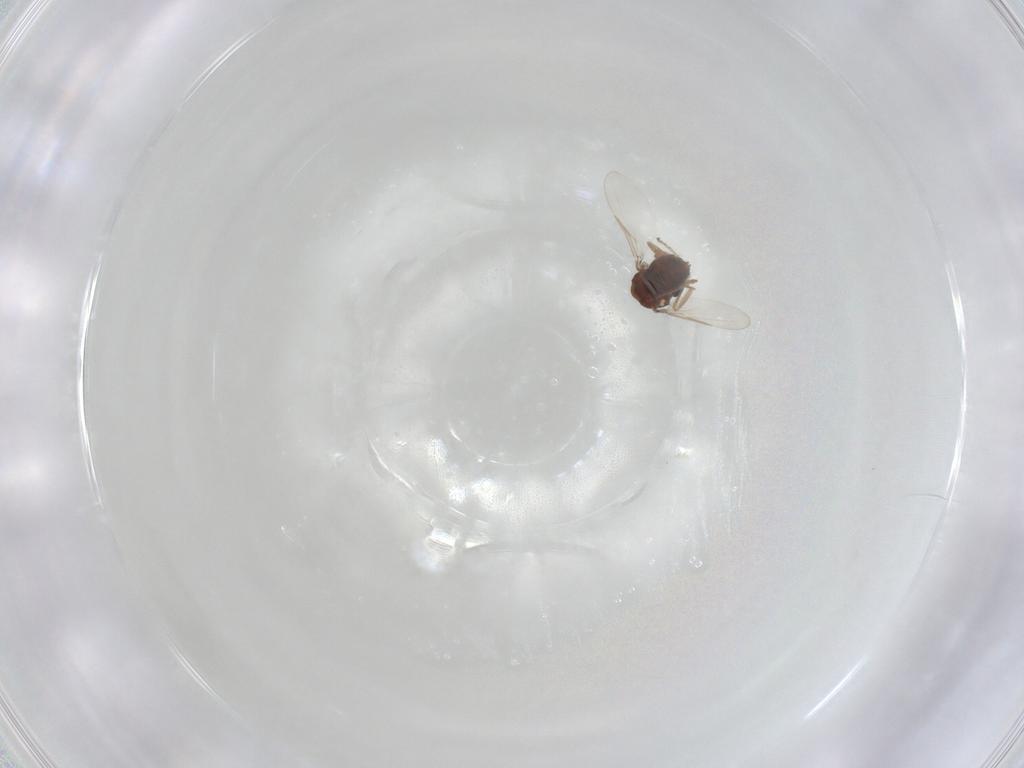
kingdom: Animalia
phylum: Arthropoda
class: Insecta
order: Diptera
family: Ceratopogonidae
